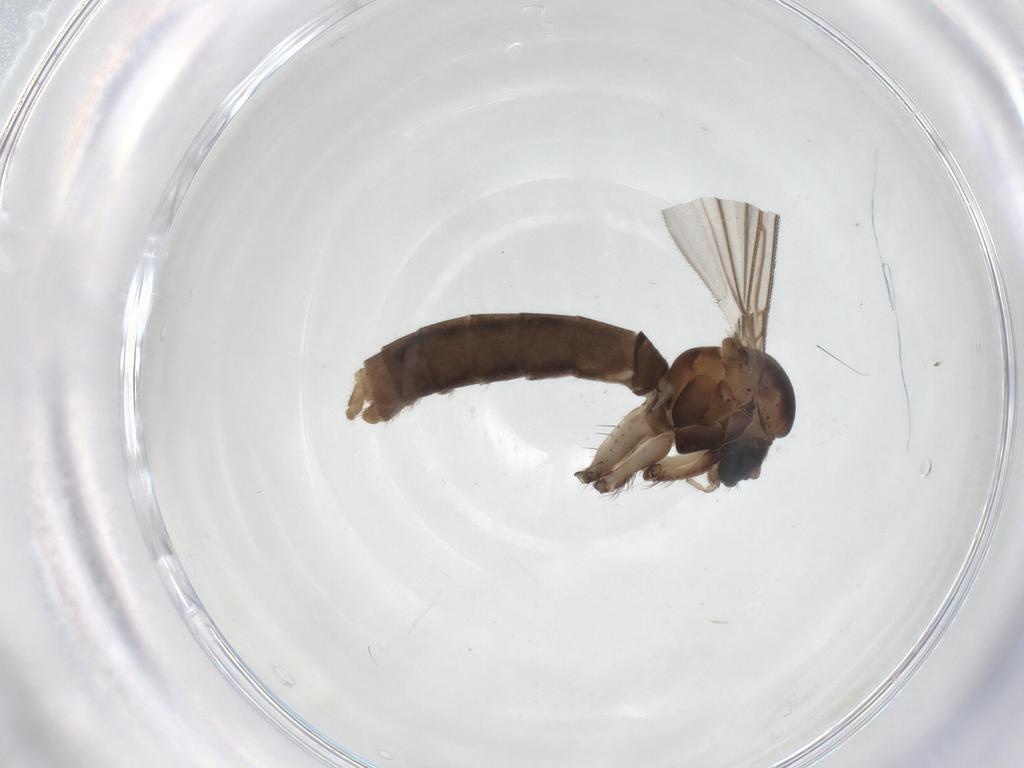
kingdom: Animalia
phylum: Arthropoda
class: Insecta
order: Diptera
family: Mycetophilidae
